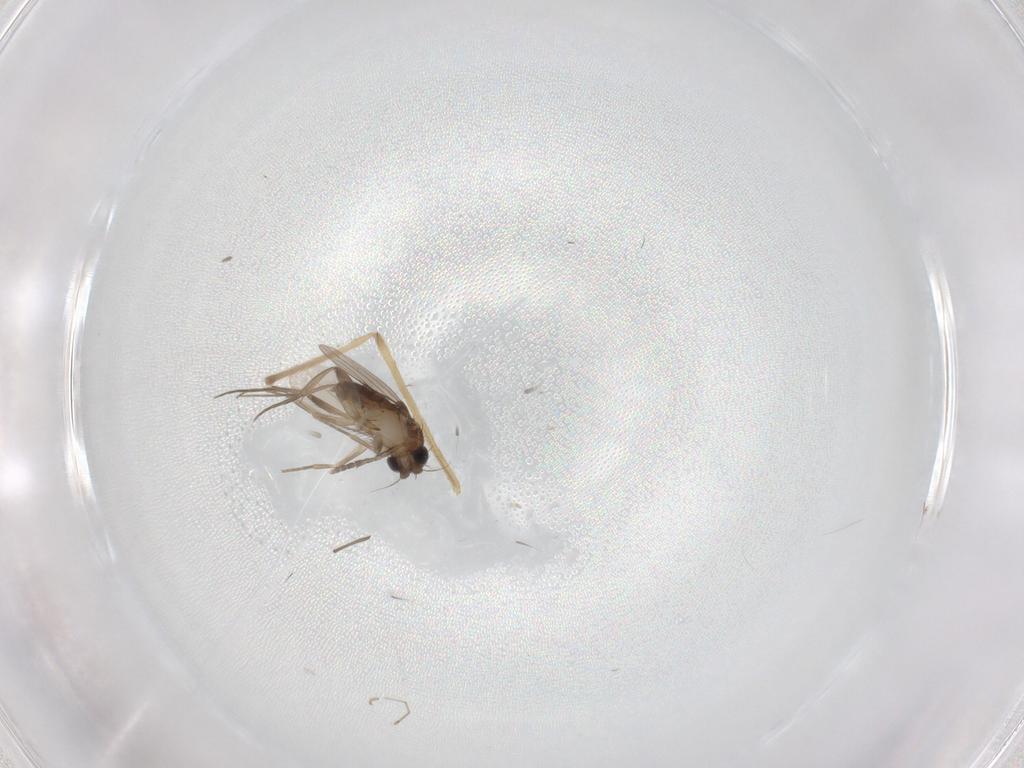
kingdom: Animalia
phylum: Arthropoda
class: Insecta
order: Diptera
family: Phoridae
